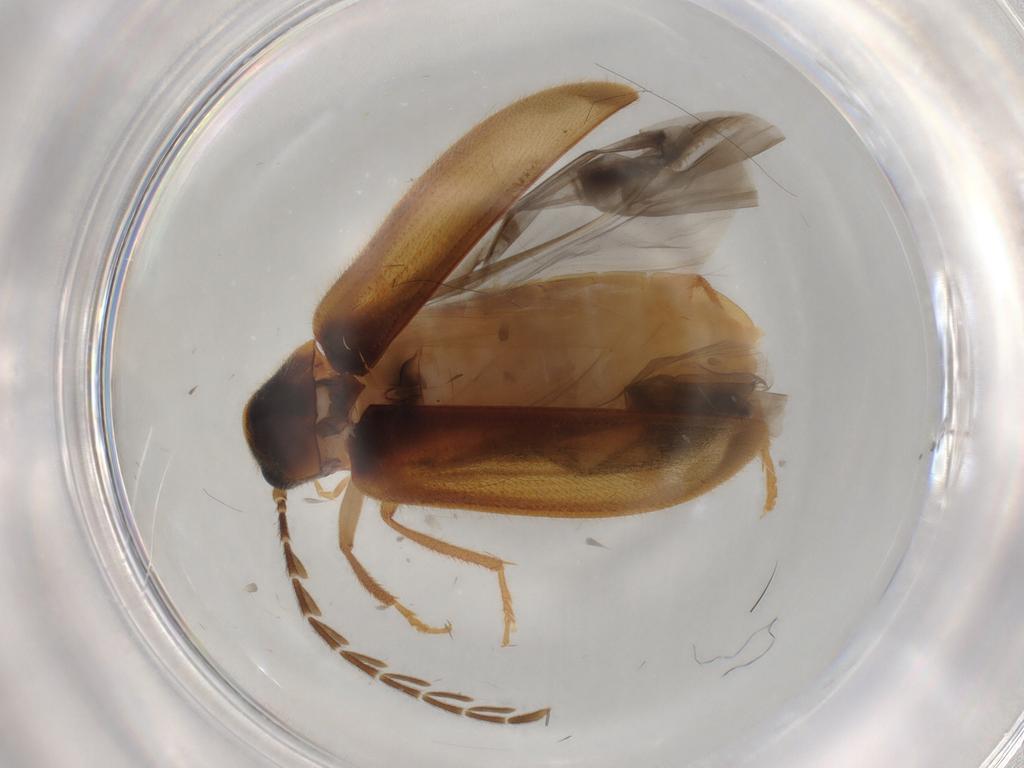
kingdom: Animalia
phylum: Arthropoda
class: Insecta
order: Coleoptera
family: Ptilodactylidae
